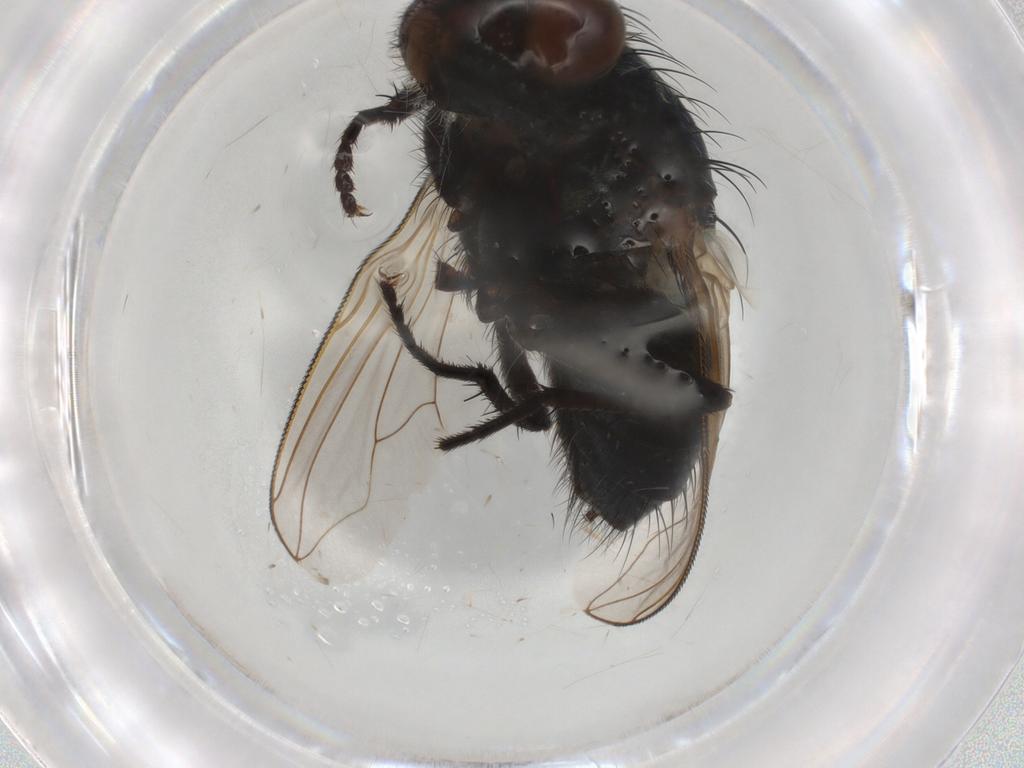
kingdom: Animalia
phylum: Arthropoda
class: Insecta
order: Diptera
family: Polleniidae
